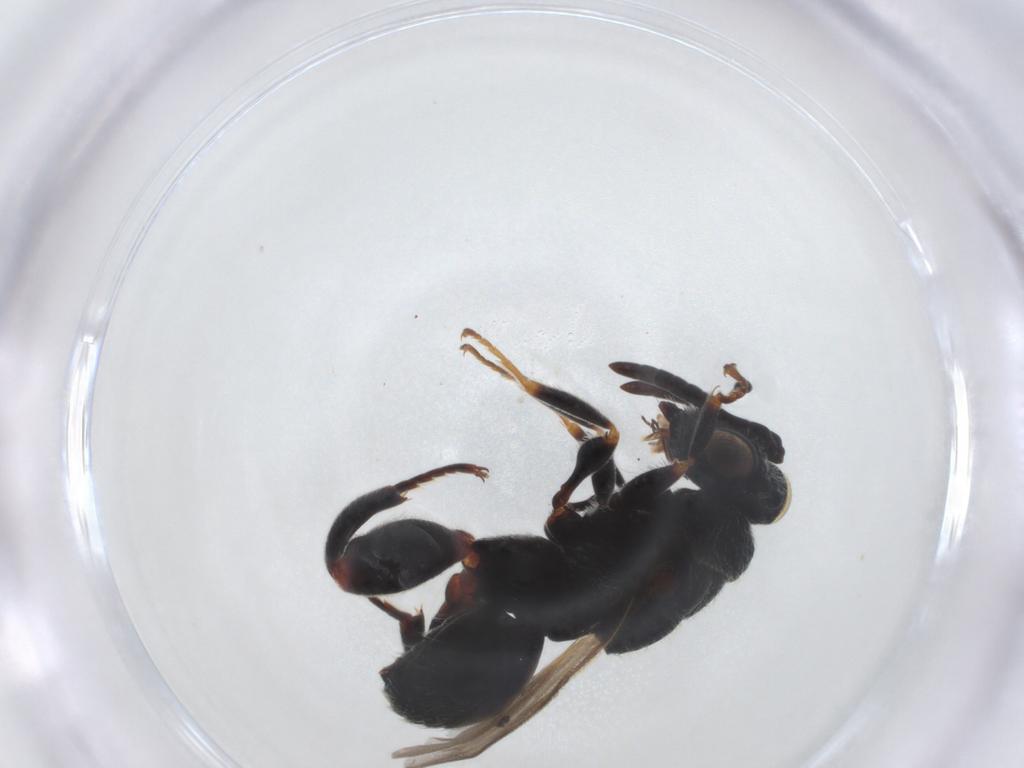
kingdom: Animalia
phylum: Arthropoda
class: Insecta
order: Hymenoptera
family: Chalcididae
